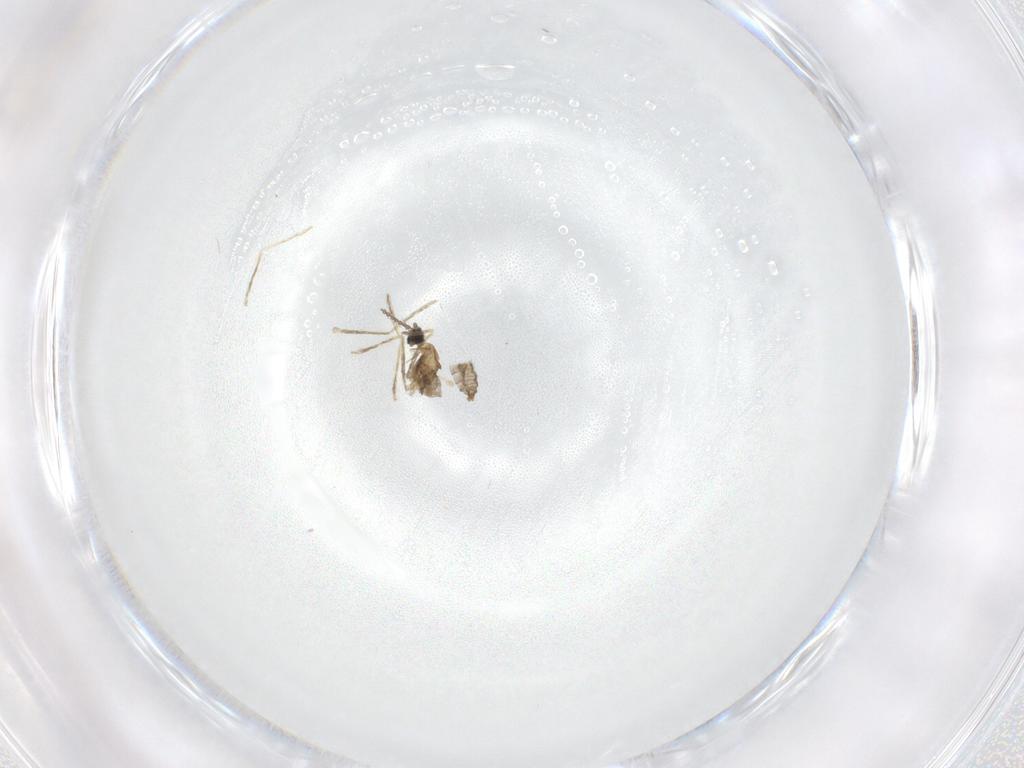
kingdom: Animalia
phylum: Arthropoda
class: Insecta
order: Diptera
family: Cecidomyiidae
